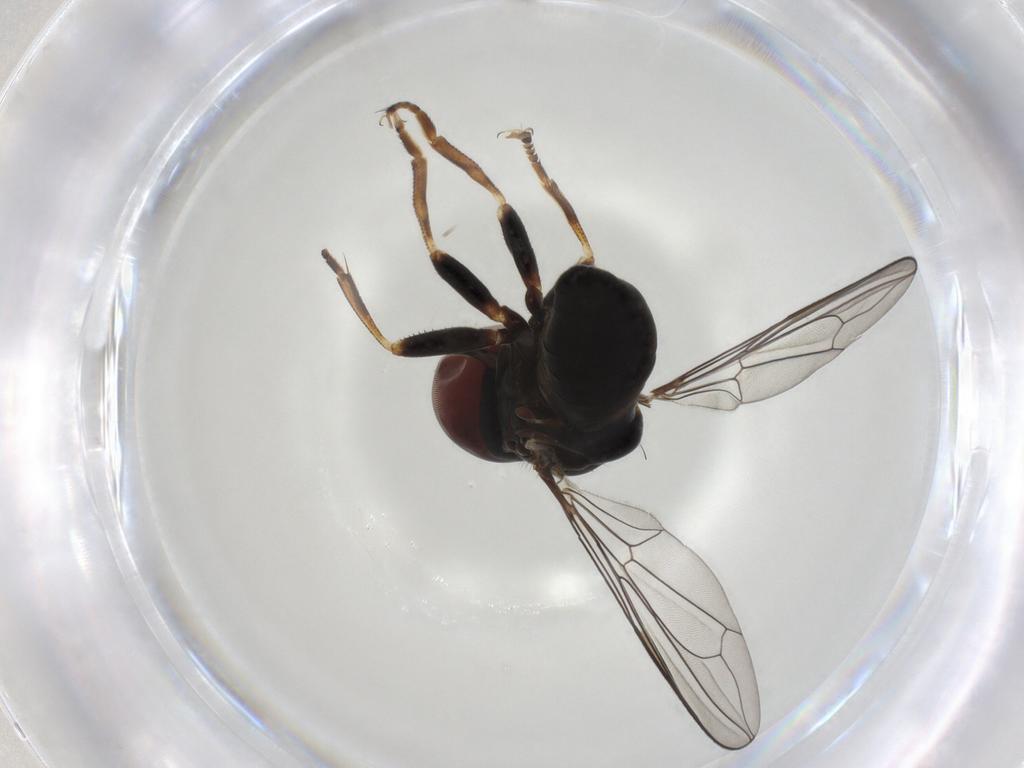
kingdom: Animalia
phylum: Arthropoda
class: Insecta
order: Diptera
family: Pipunculidae
